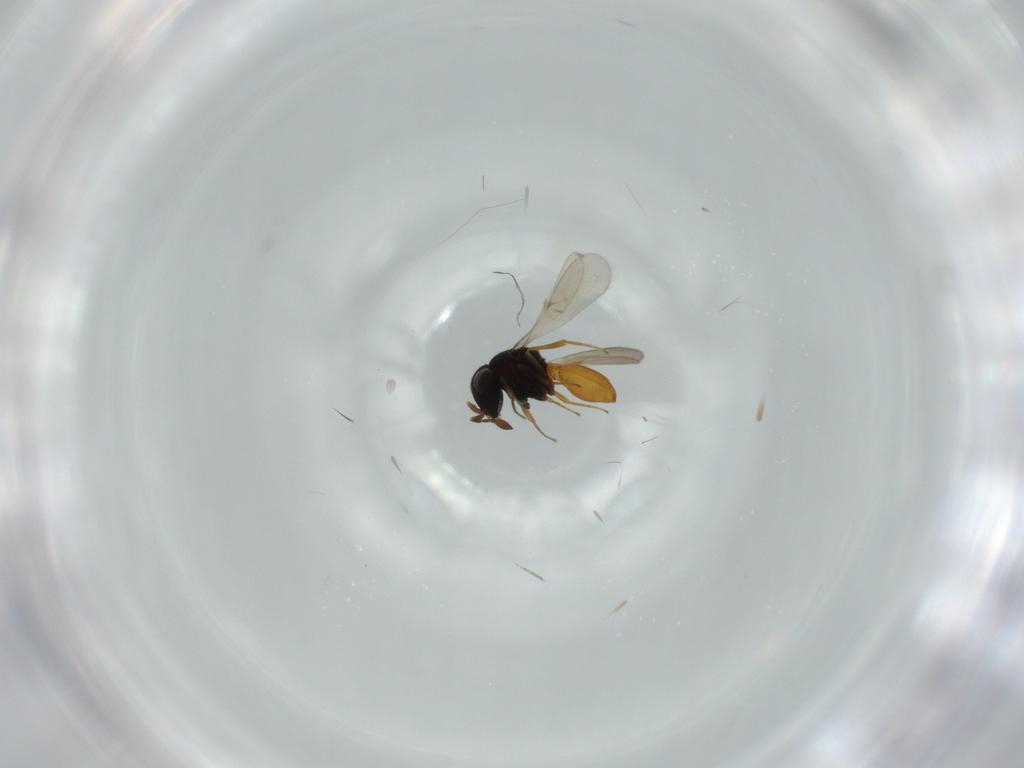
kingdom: Animalia
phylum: Arthropoda
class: Insecta
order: Hymenoptera
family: Scelionidae
